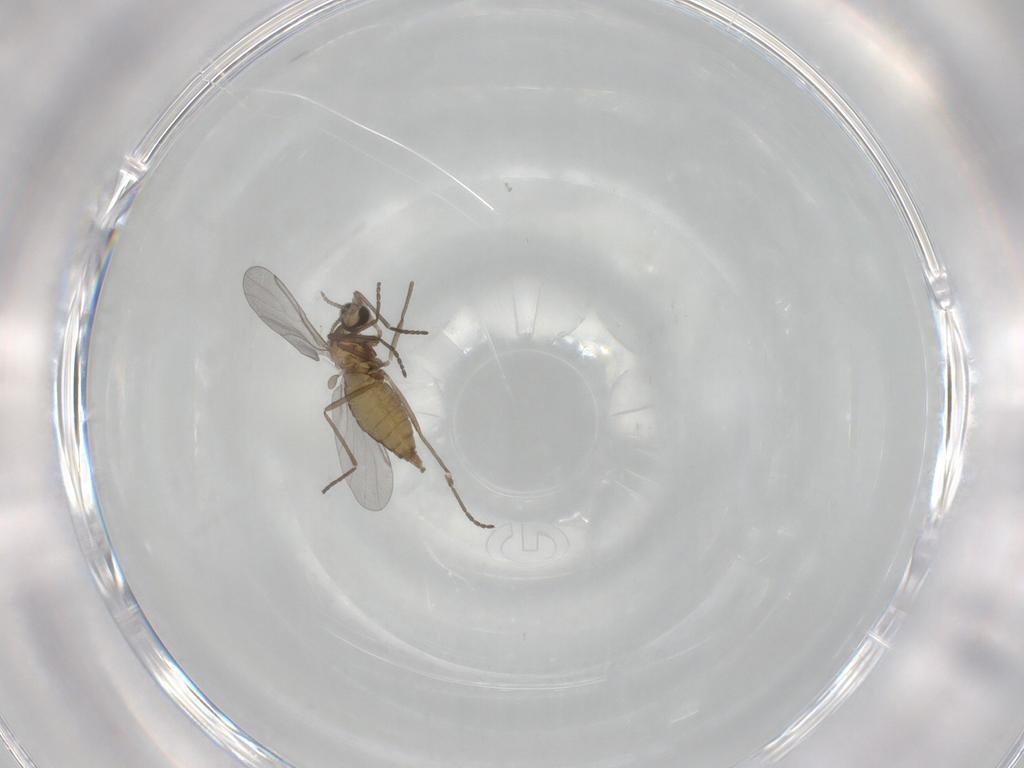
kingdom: Animalia
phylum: Arthropoda
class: Insecta
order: Diptera
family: Cecidomyiidae
